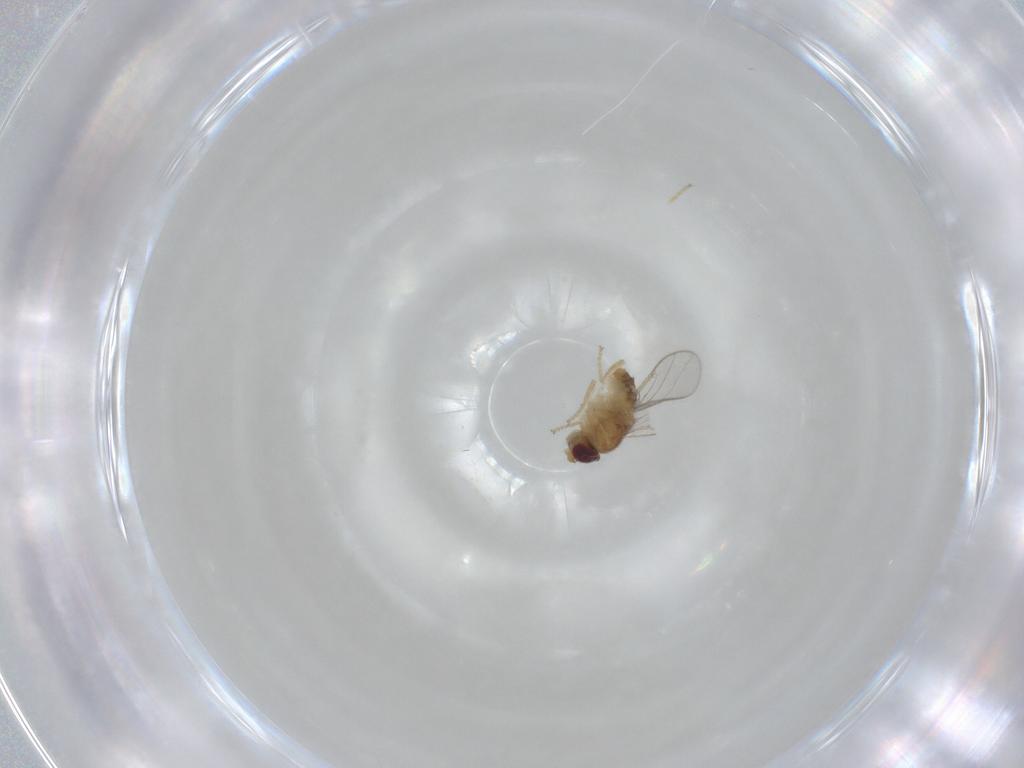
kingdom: Animalia
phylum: Arthropoda
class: Insecta
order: Diptera
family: Chloropidae
